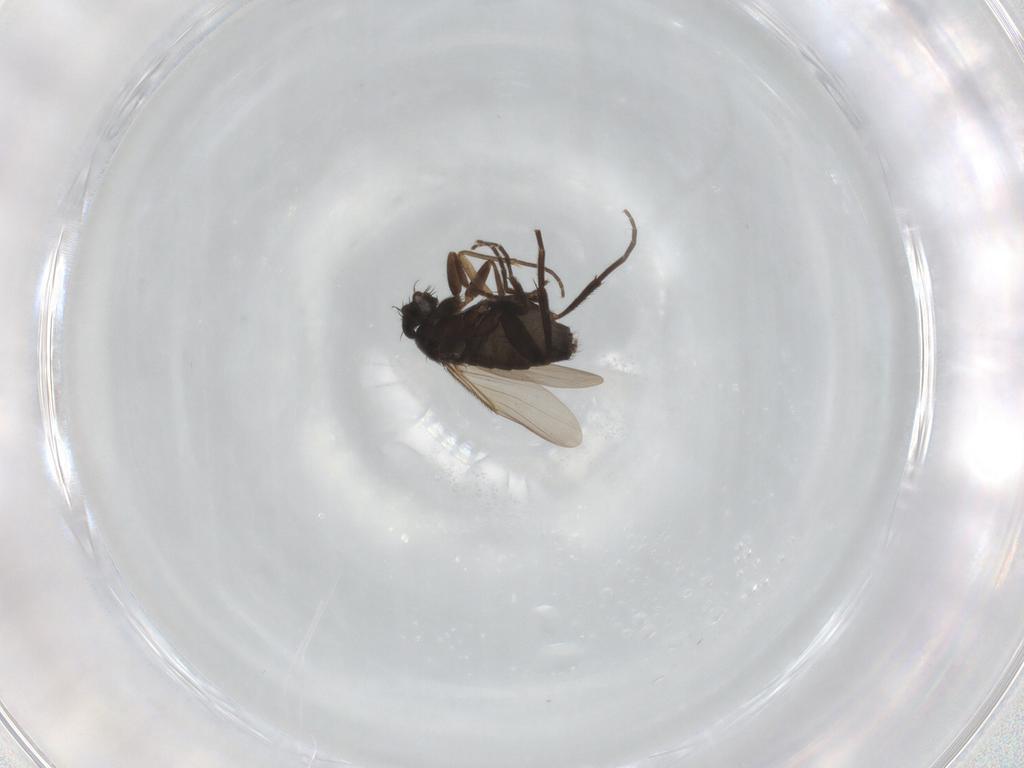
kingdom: Animalia
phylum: Arthropoda
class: Insecta
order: Diptera
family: Sciaridae
